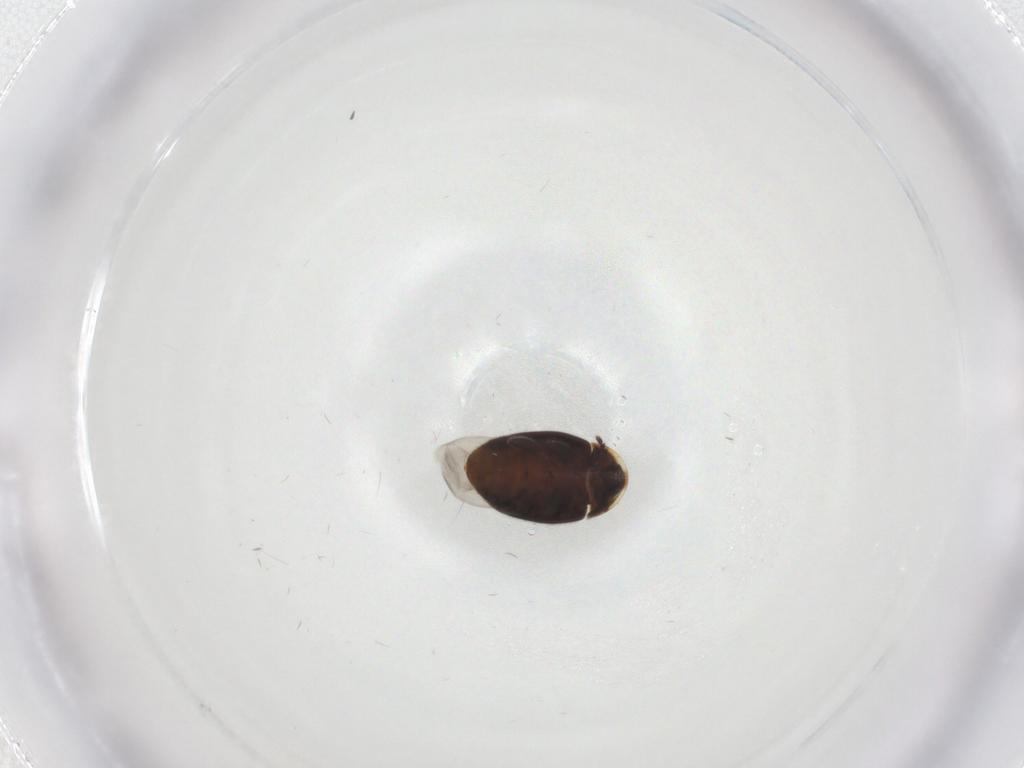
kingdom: Animalia
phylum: Arthropoda
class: Insecta
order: Coleoptera
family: Corylophidae
